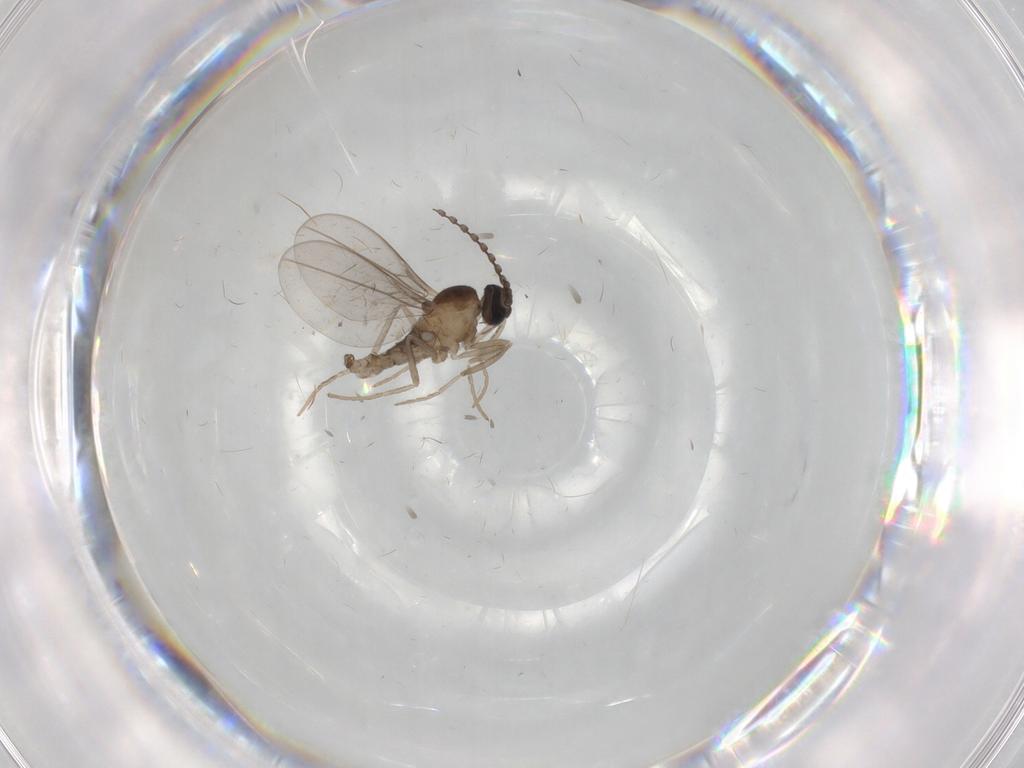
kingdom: Animalia
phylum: Arthropoda
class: Insecta
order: Diptera
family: Cecidomyiidae
